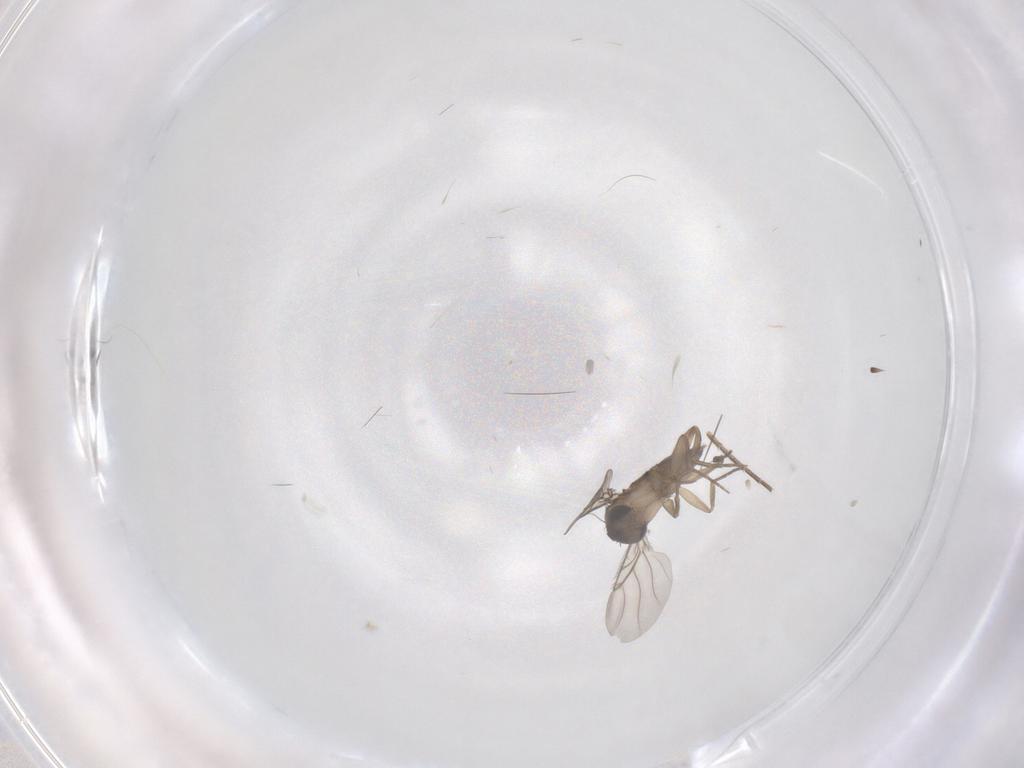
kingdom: Animalia
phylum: Arthropoda
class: Insecta
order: Diptera
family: Phoridae
